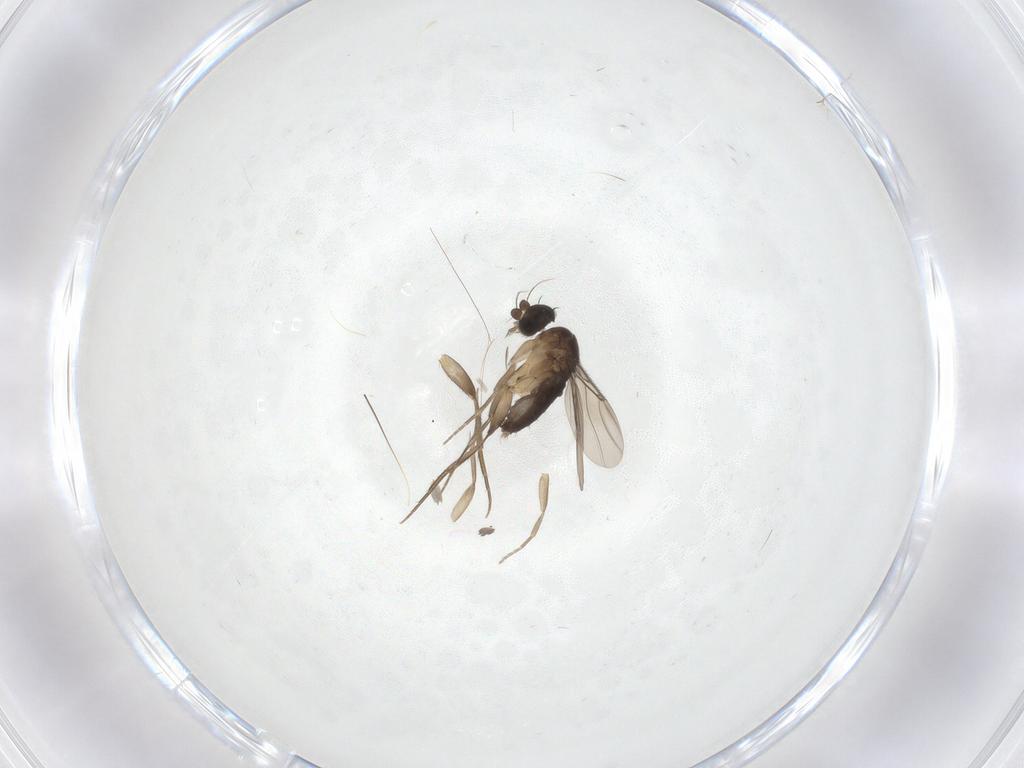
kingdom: Animalia
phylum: Arthropoda
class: Insecta
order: Diptera
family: Phoridae
